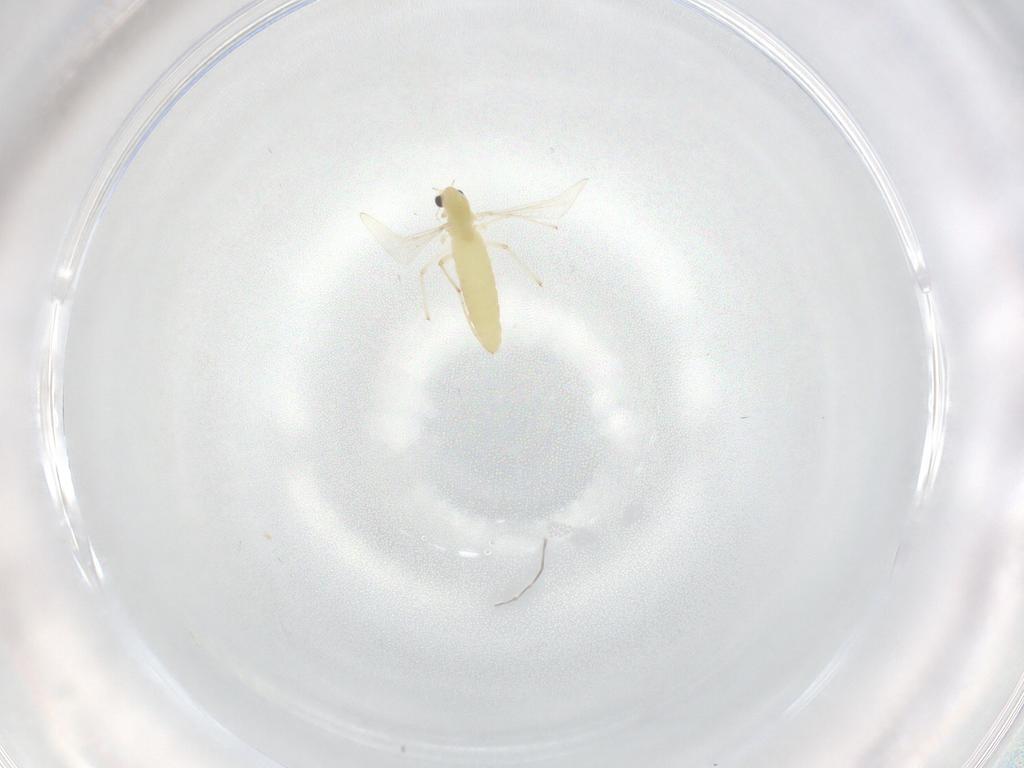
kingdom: Animalia
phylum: Arthropoda
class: Insecta
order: Diptera
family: Chironomidae
